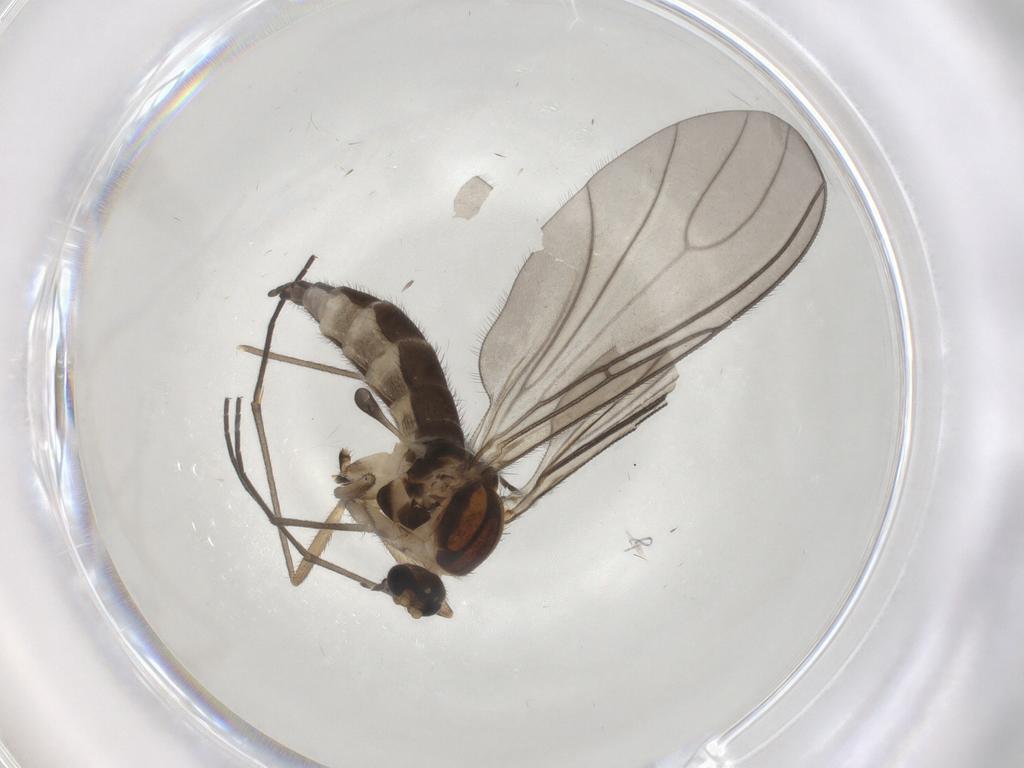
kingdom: Animalia
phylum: Arthropoda
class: Insecta
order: Diptera
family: Sciaridae
